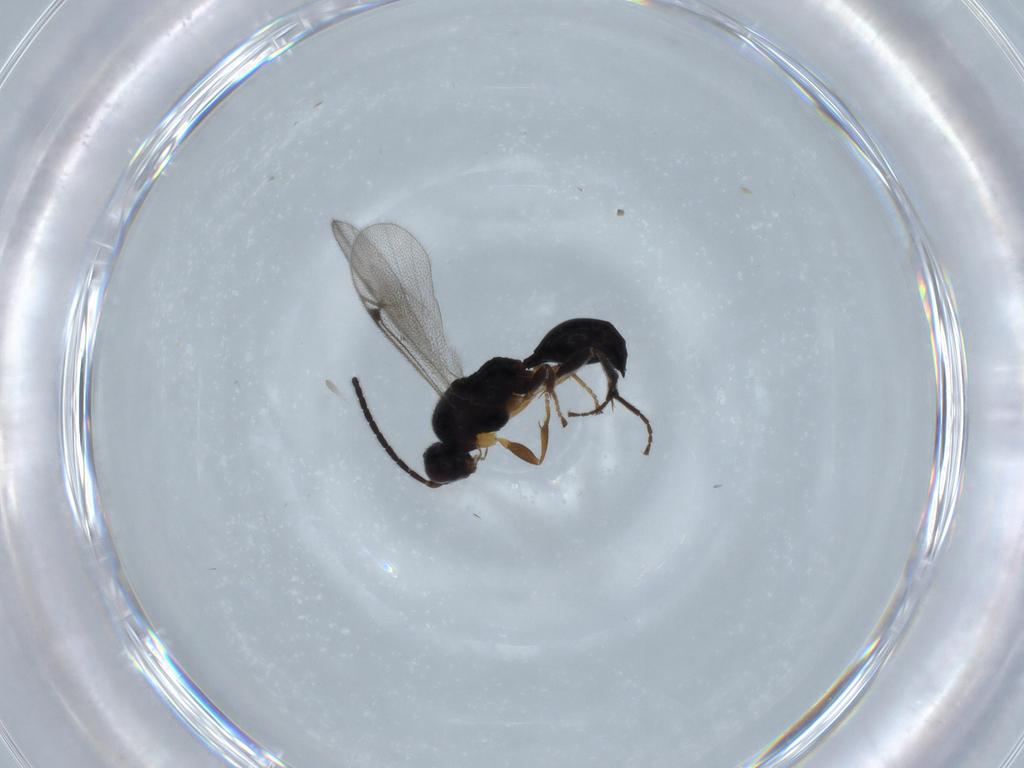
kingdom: Animalia
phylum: Arthropoda
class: Insecta
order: Hymenoptera
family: Proctotrupidae
